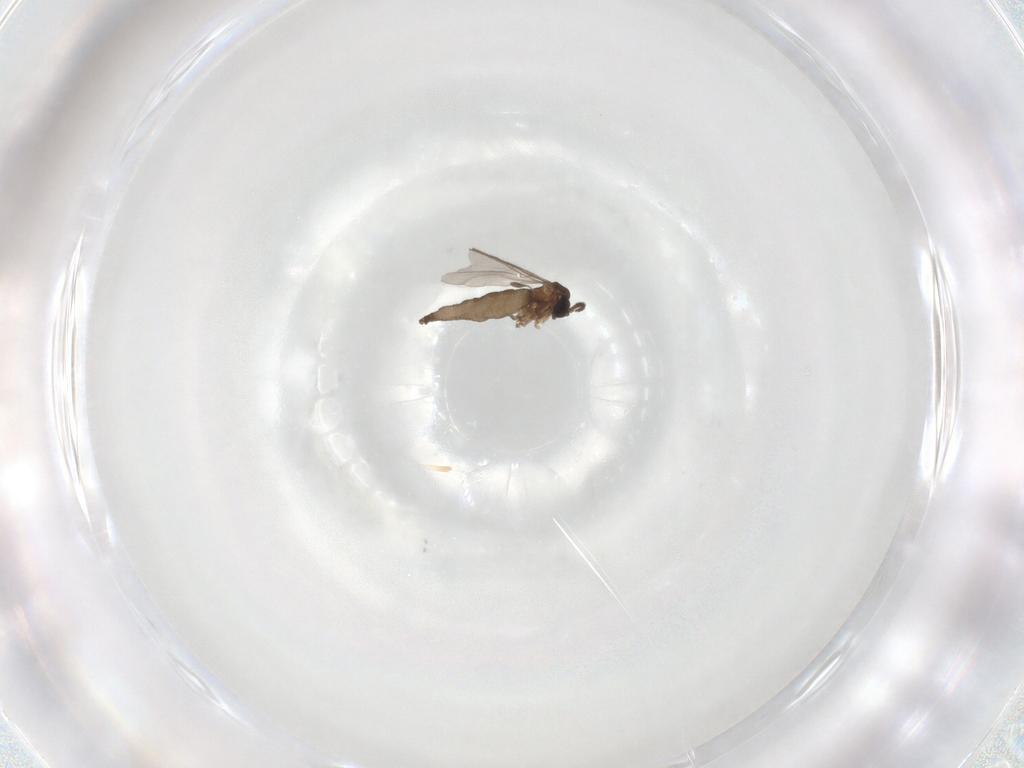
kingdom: Animalia
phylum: Arthropoda
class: Insecta
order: Diptera
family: Sciaridae
